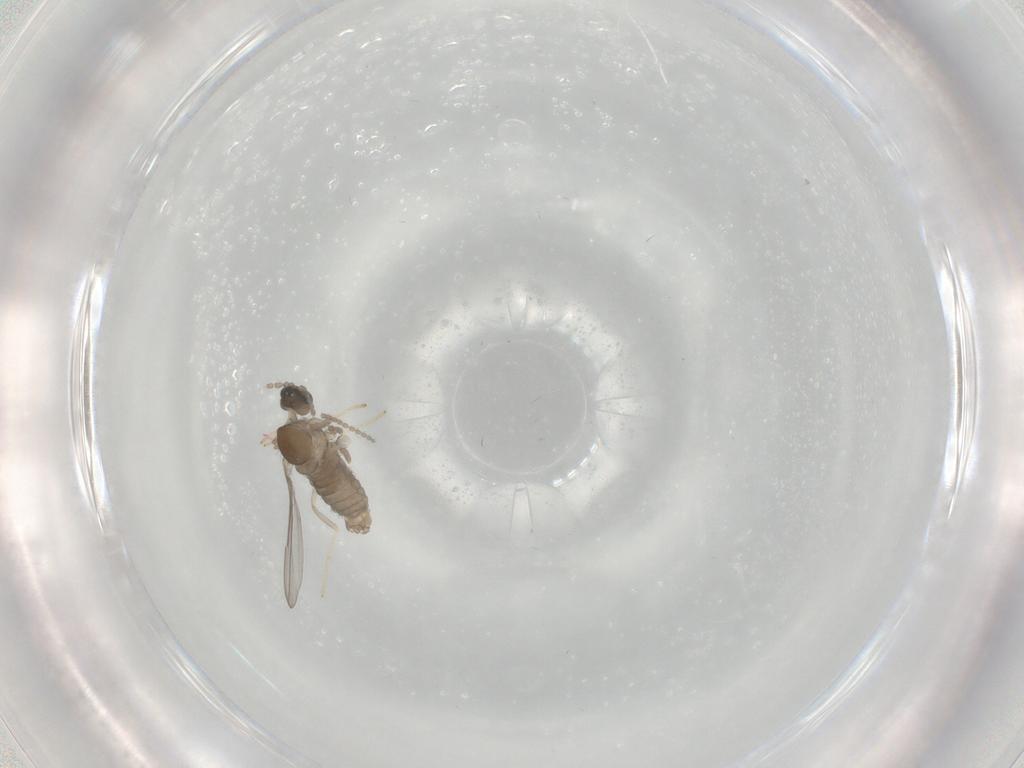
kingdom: Animalia
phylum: Arthropoda
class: Insecta
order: Diptera
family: Cecidomyiidae
